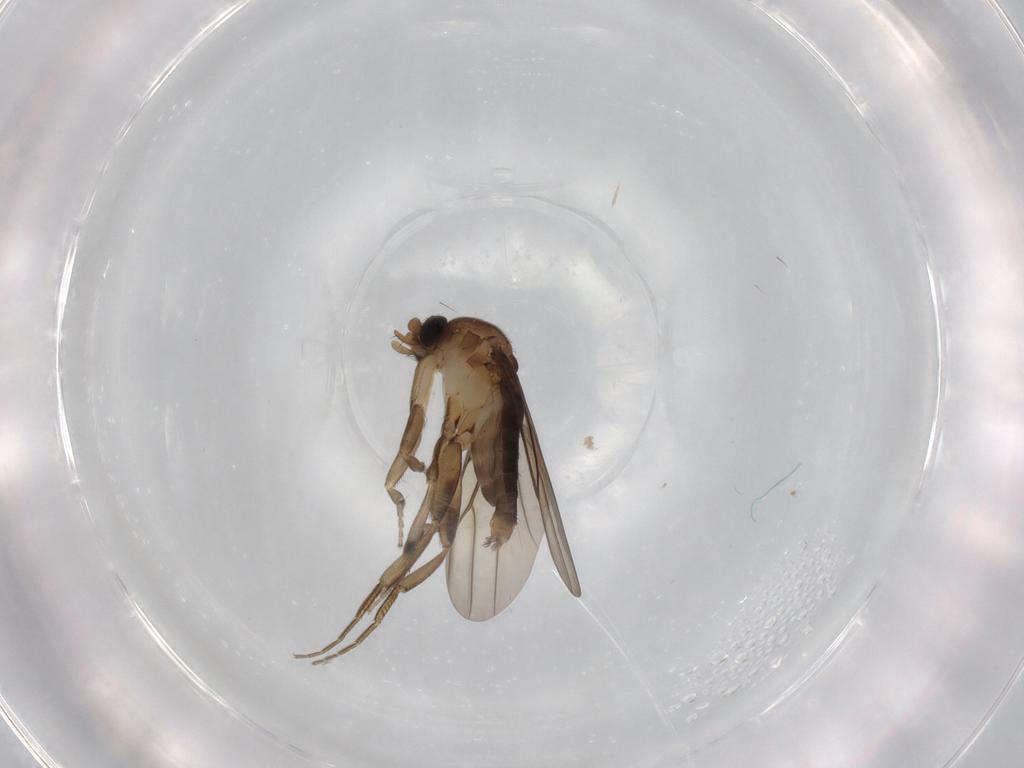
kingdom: Animalia
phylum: Arthropoda
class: Insecta
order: Diptera
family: Phoridae
